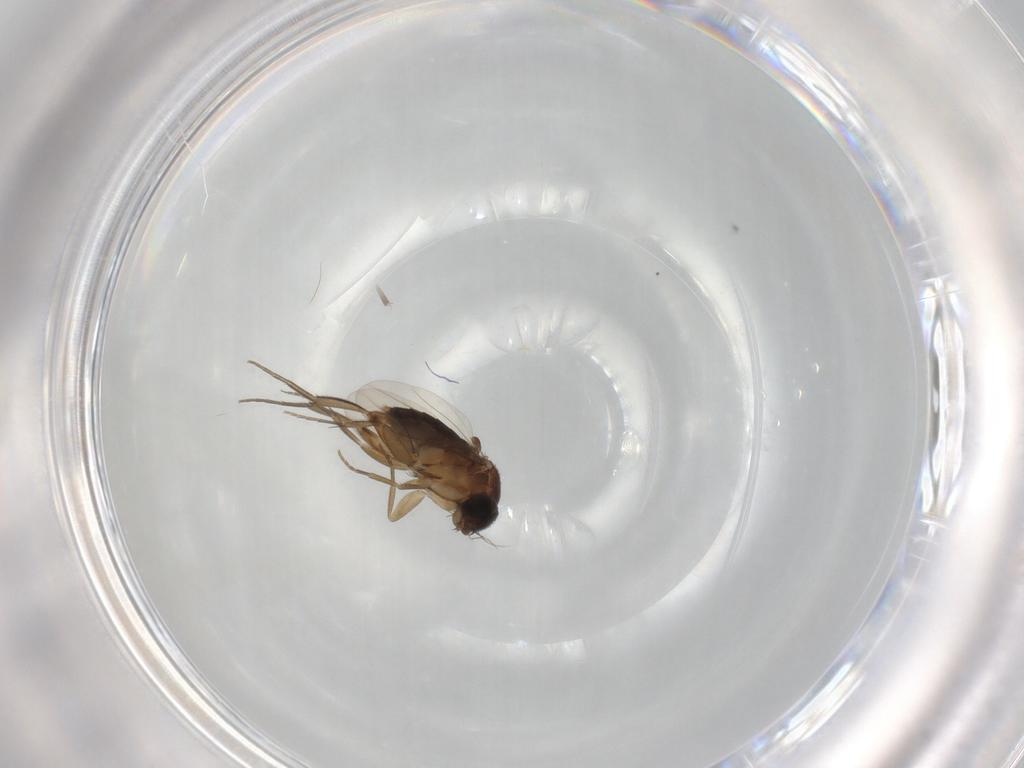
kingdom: Animalia
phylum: Arthropoda
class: Insecta
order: Diptera
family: Phoridae
